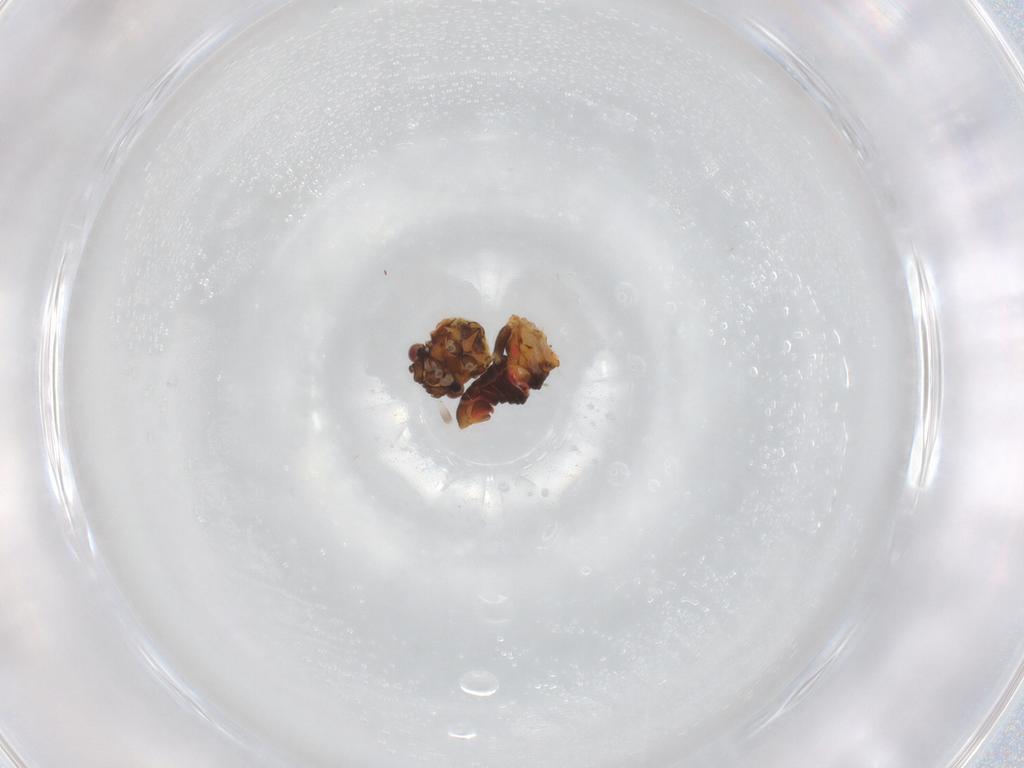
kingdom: Animalia
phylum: Arthropoda
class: Insecta
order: Hemiptera
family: Psyllidae
